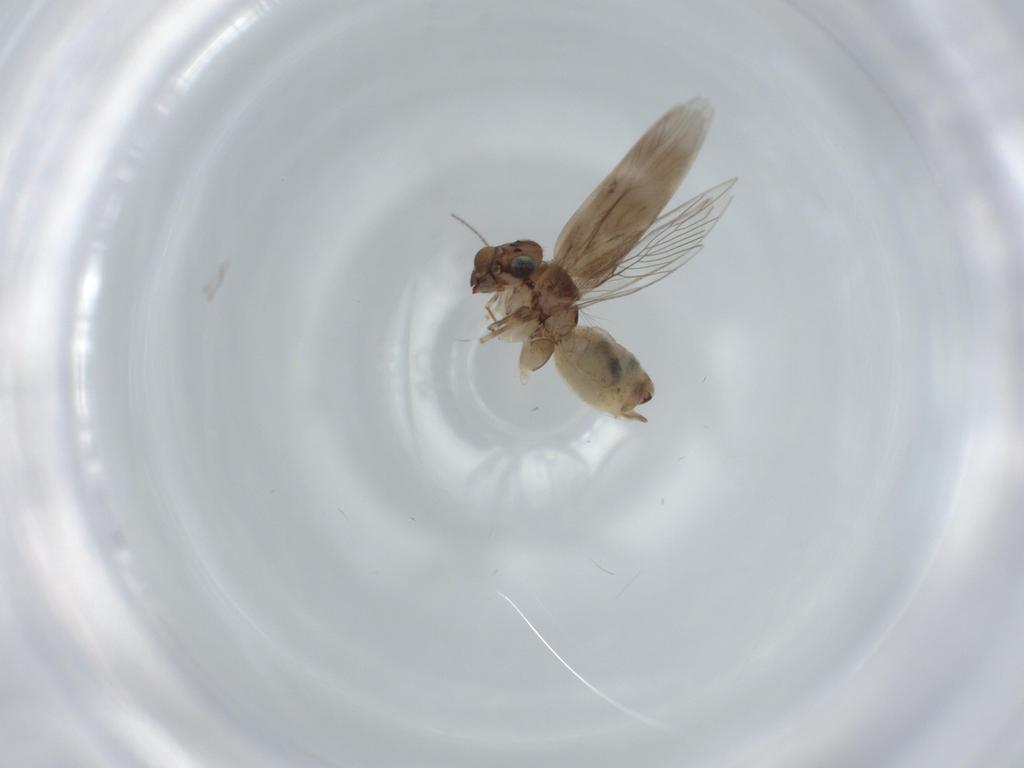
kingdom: Animalia
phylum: Arthropoda
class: Insecta
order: Psocodea
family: Lepidopsocidae
